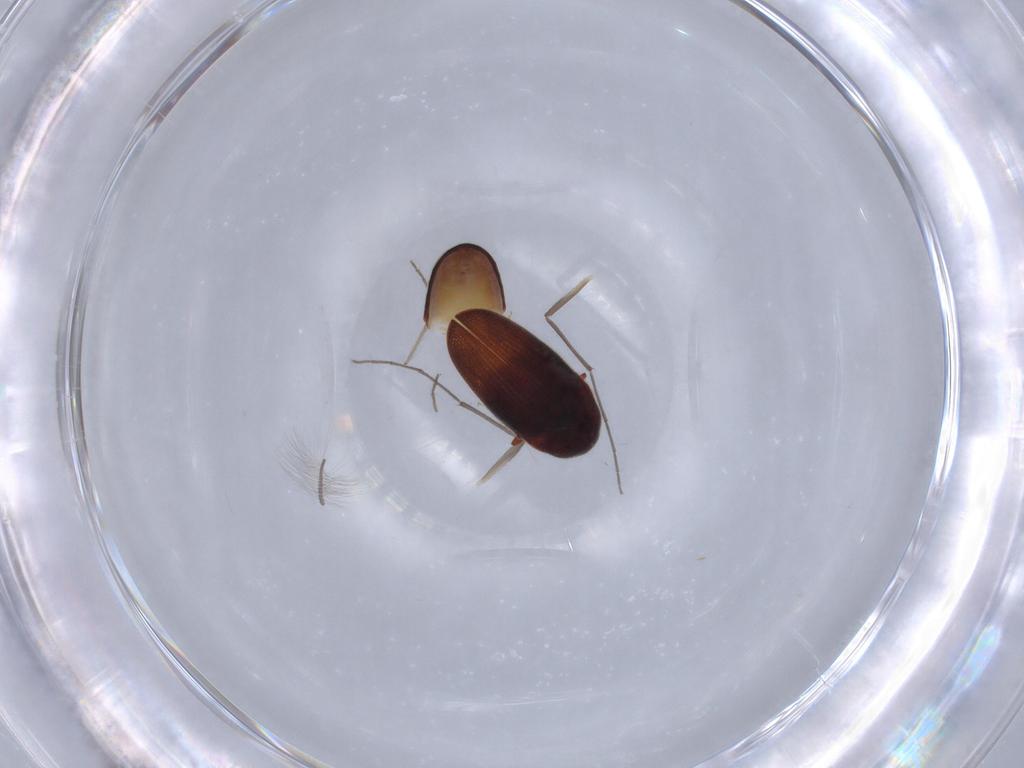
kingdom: Animalia
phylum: Arthropoda
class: Insecta
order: Coleoptera
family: Throscidae
